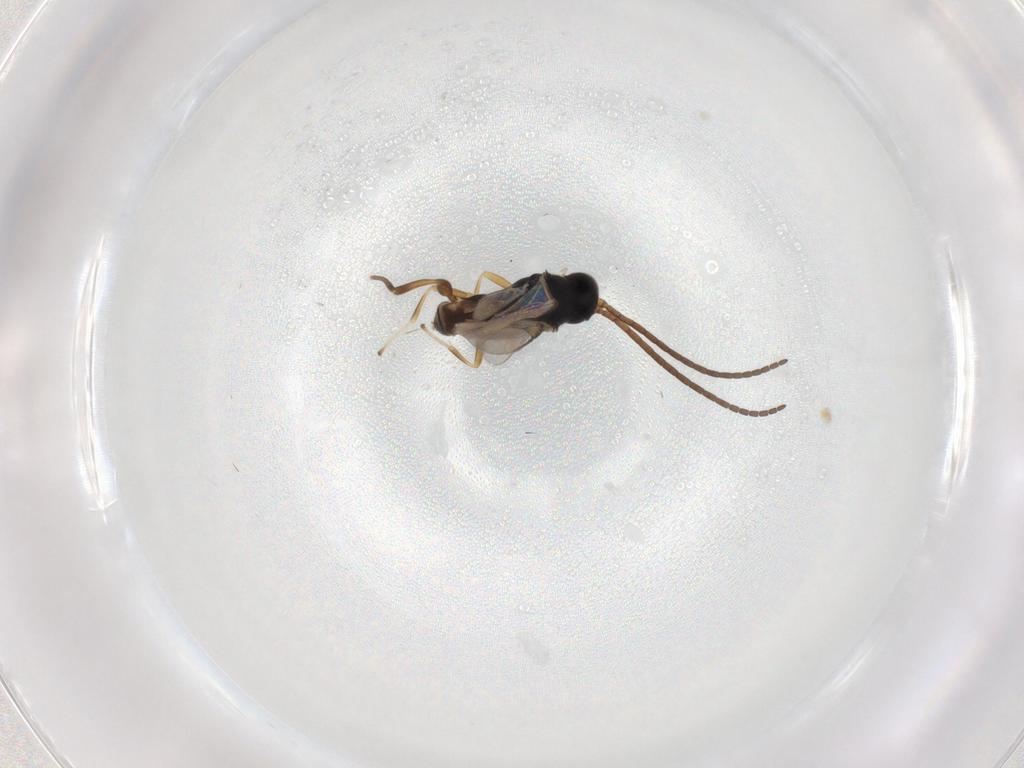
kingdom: Animalia
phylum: Arthropoda
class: Insecta
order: Hymenoptera
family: Braconidae
